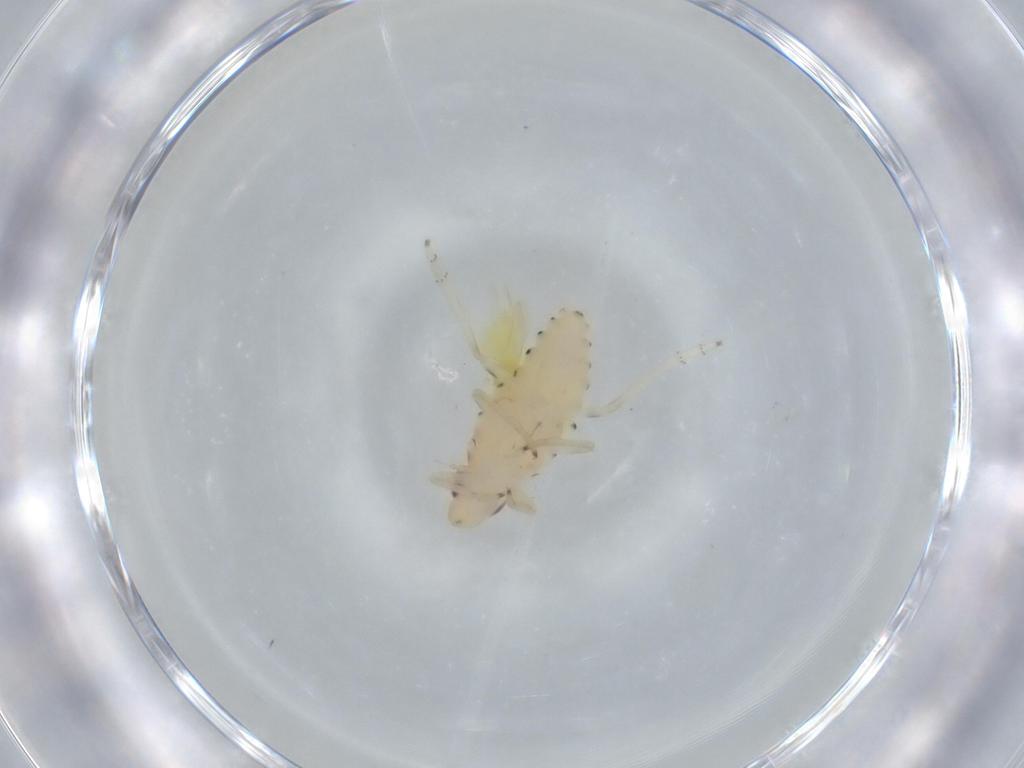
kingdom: Animalia
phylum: Arthropoda
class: Insecta
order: Hemiptera
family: Tropiduchidae
